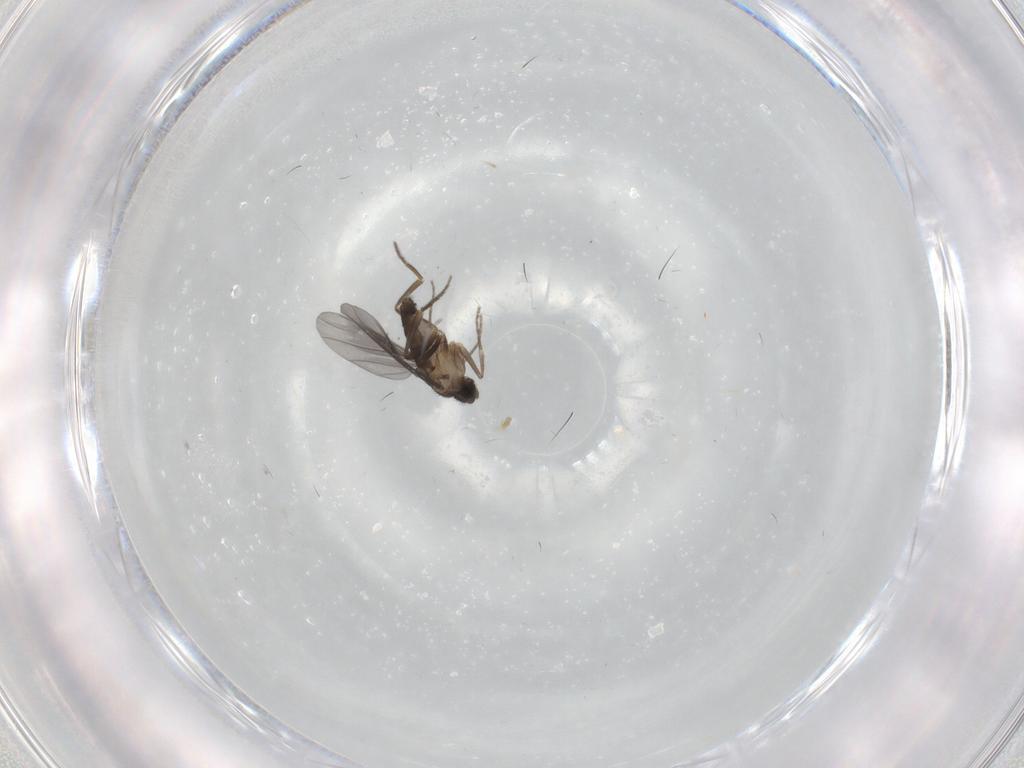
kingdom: Animalia
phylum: Arthropoda
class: Insecta
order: Diptera
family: Phoridae
